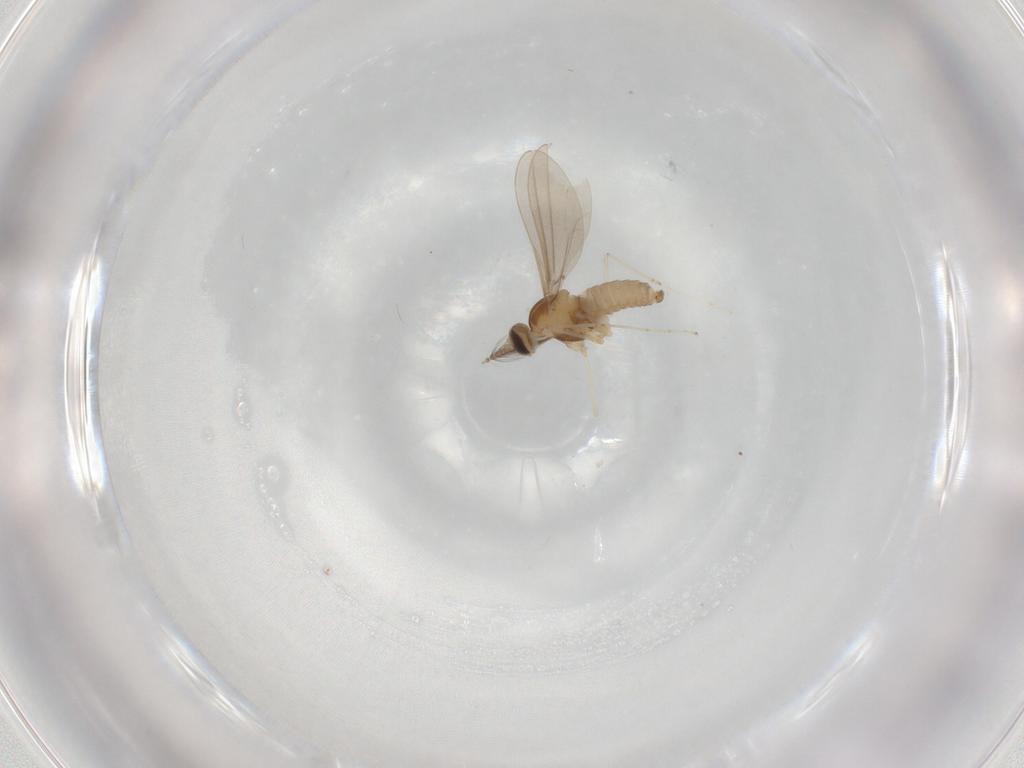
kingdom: Animalia
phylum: Arthropoda
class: Insecta
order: Diptera
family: Cecidomyiidae
